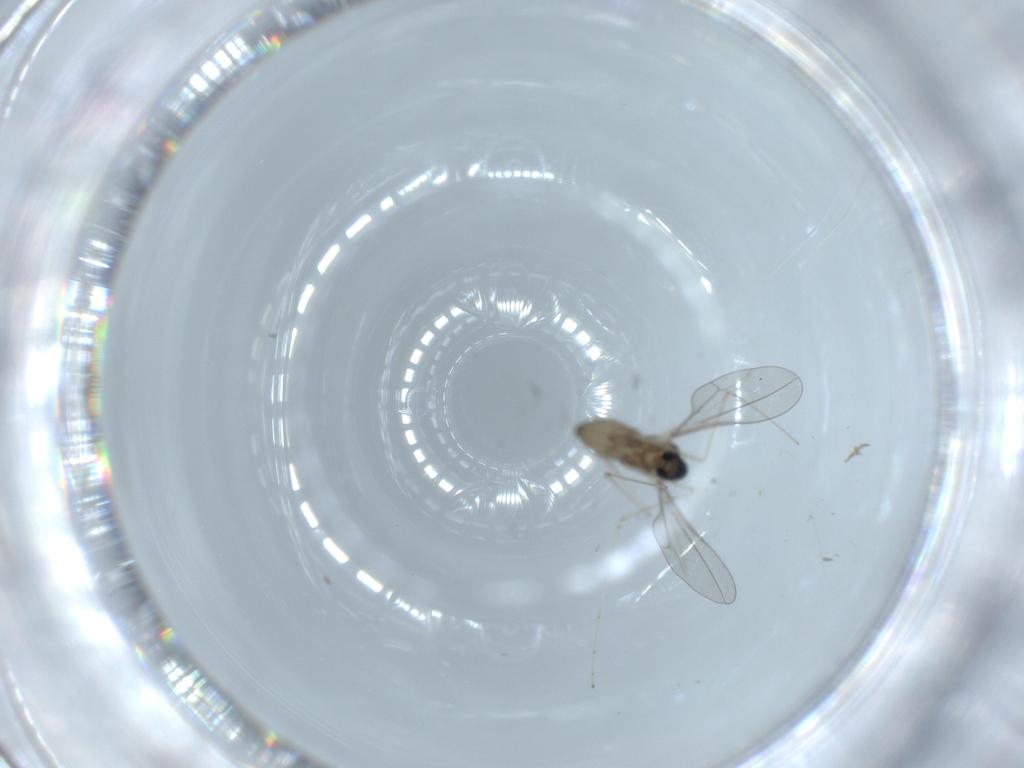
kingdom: Animalia
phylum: Arthropoda
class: Insecta
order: Diptera
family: Cecidomyiidae
